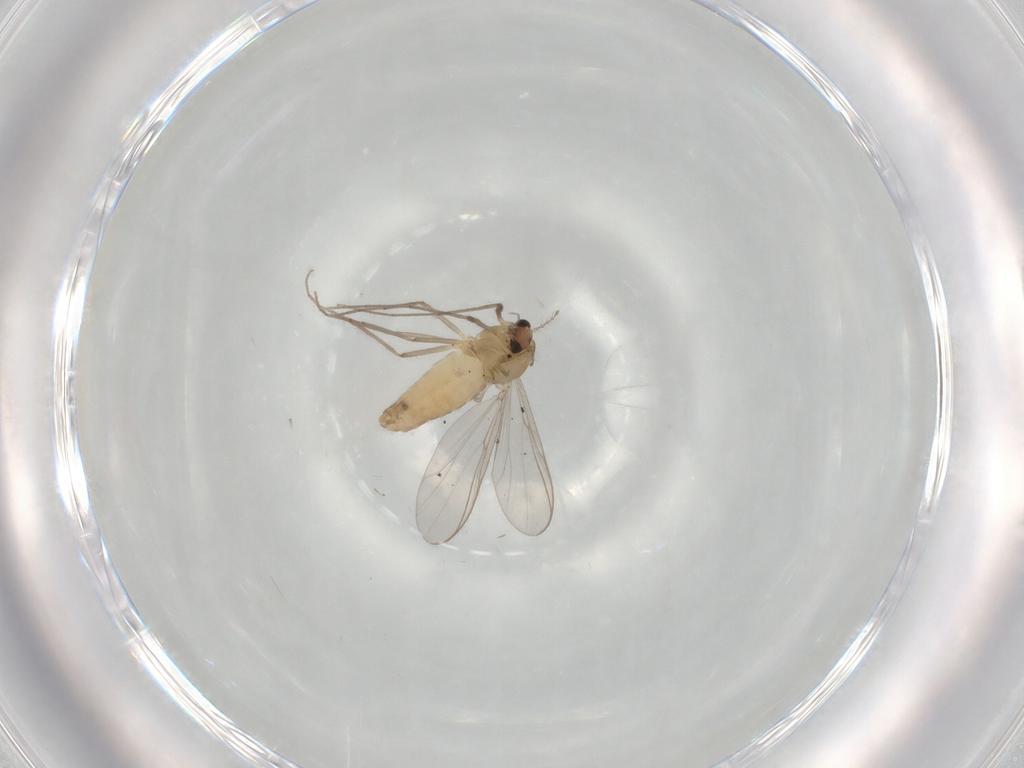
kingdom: Animalia
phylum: Arthropoda
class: Insecta
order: Diptera
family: Chironomidae
